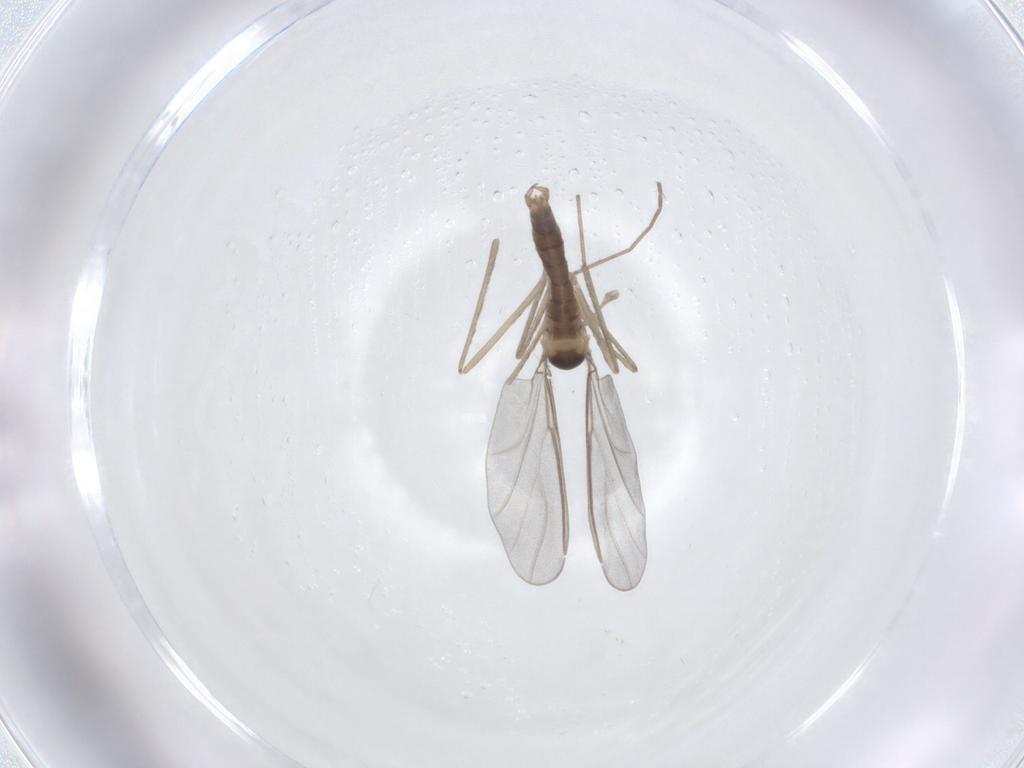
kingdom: Animalia
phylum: Arthropoda
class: Insecta
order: Diptera
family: Cecidomyiidae
